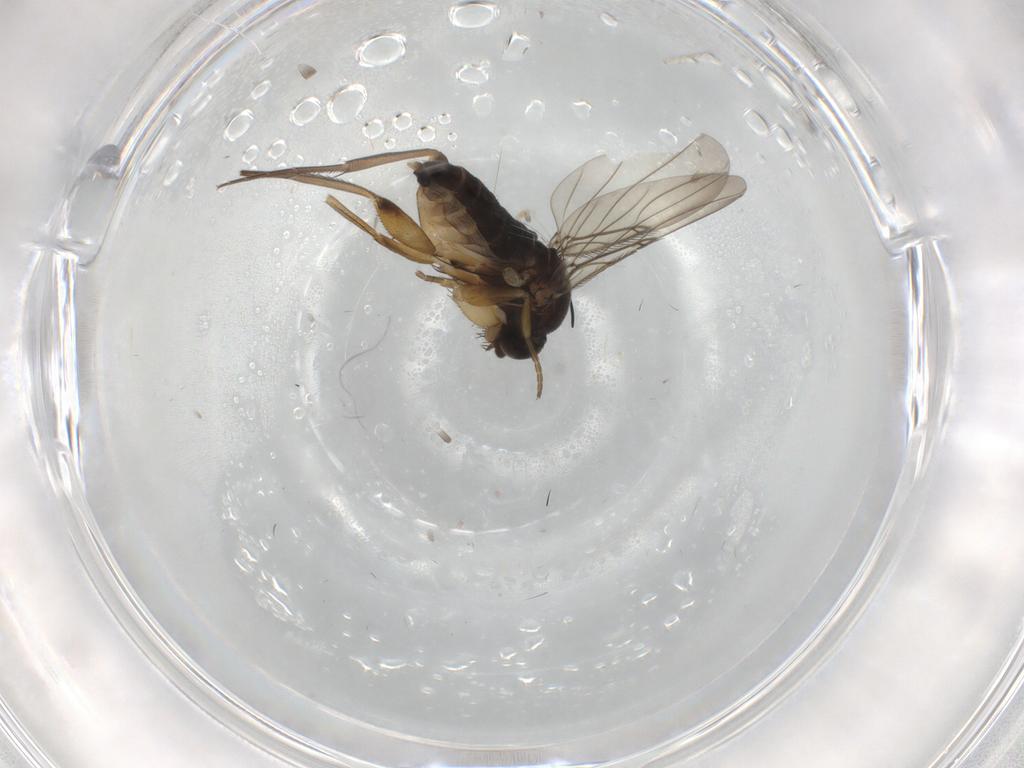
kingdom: Animalia
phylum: Arthropoda
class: Insecta
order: Diptera
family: Phoridae
